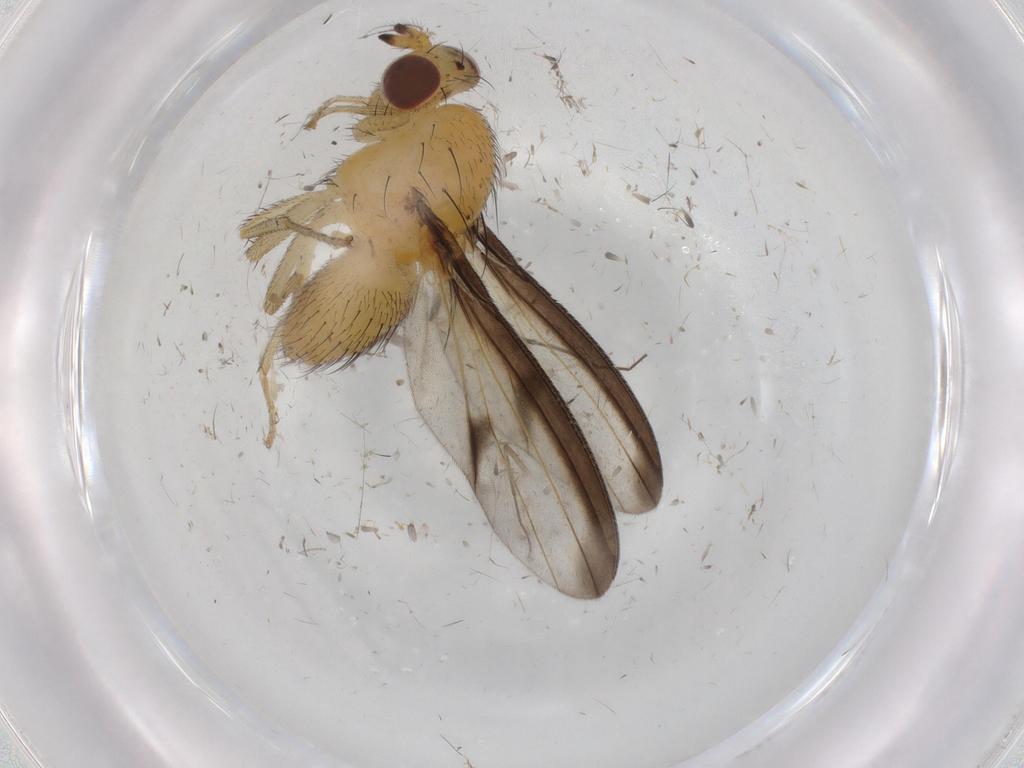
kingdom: Animalia
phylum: Arthropoda
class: Insecta
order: Diptera
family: Lauxaniidae
